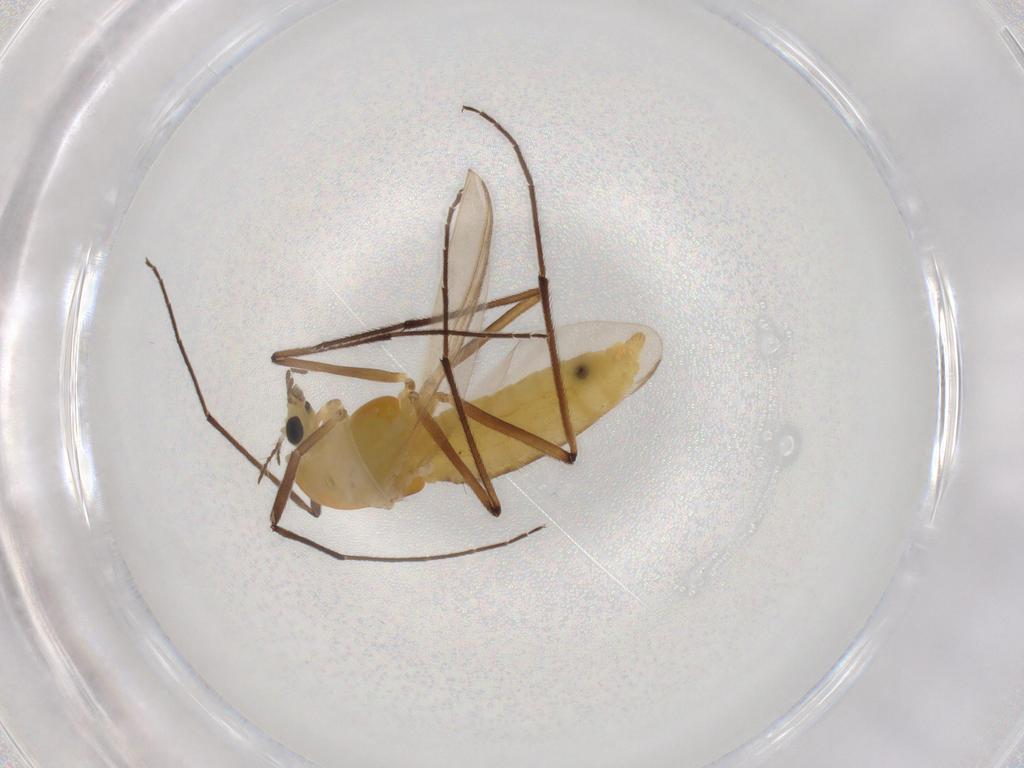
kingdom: Animalia
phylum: Arthropoda
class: Insecta
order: Diptera
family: Chironomidae
